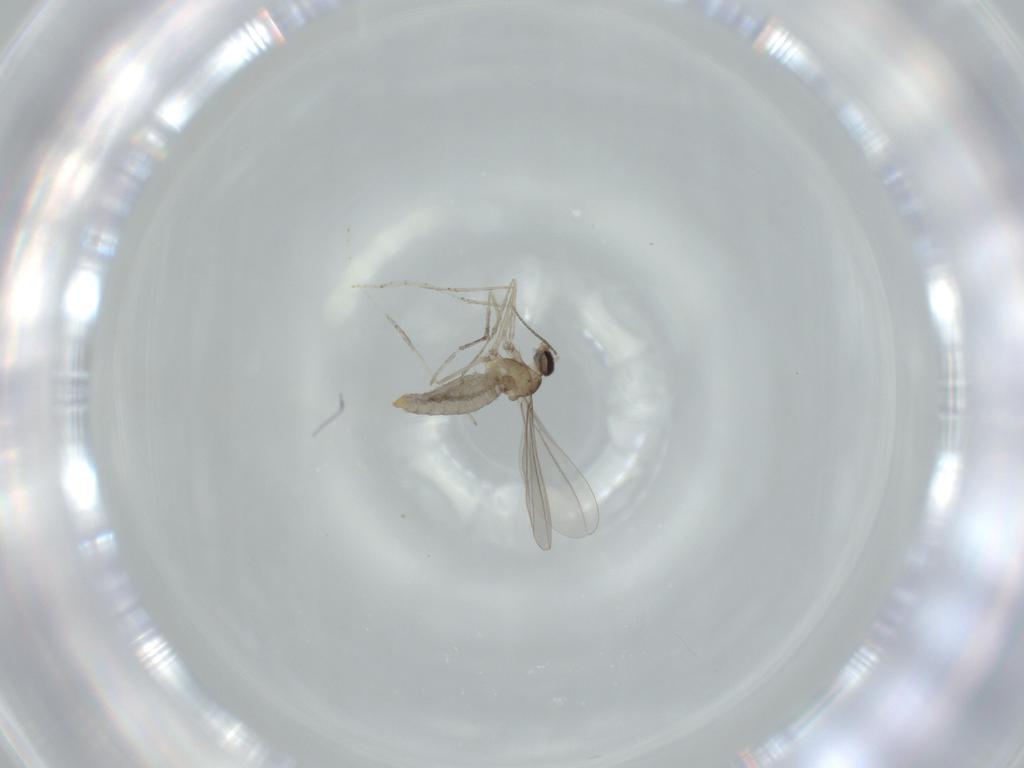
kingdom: Animalia
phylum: Arthropoda
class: Insecta
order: Diptera
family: Cecidomyiidae
